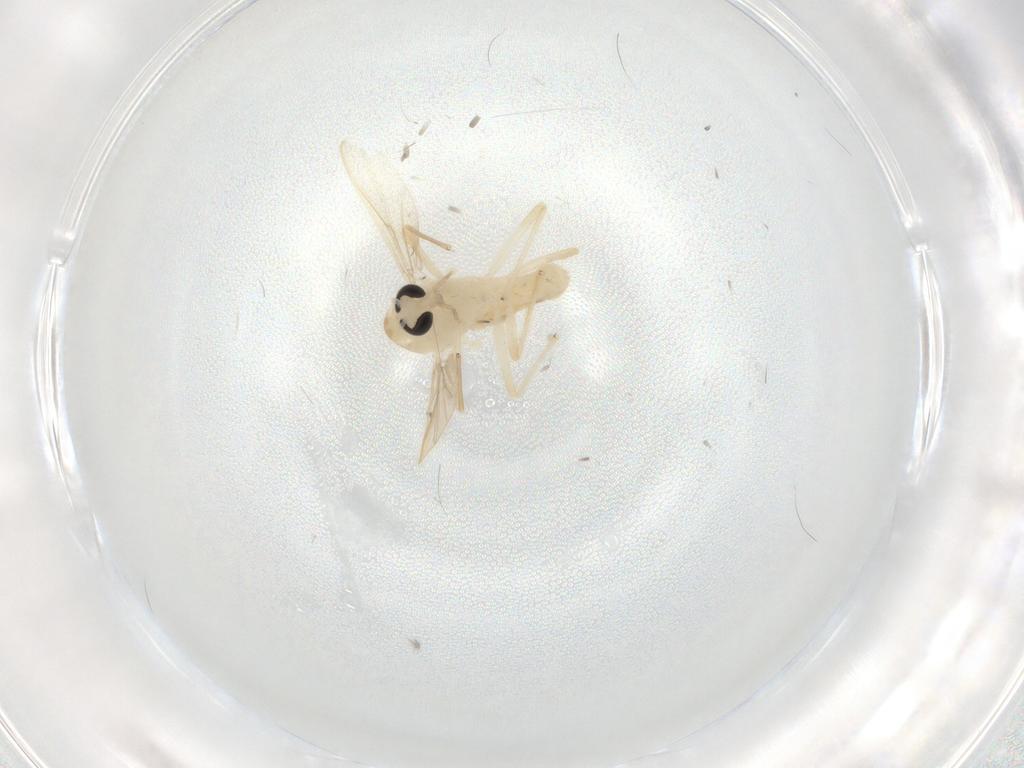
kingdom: Animalia
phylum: Arthropoda
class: Insecta
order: Diptera
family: Chironomidae
